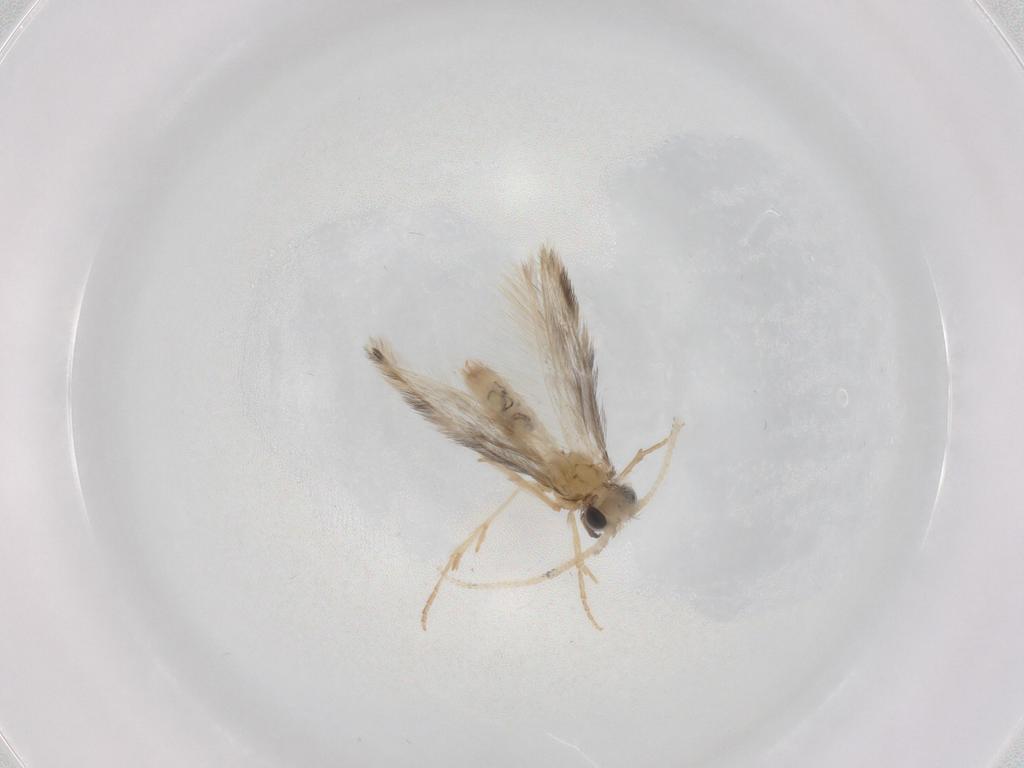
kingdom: Animalia
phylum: Arthropoda
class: Insecta
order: Trichoptera
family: Hydroptilidae
